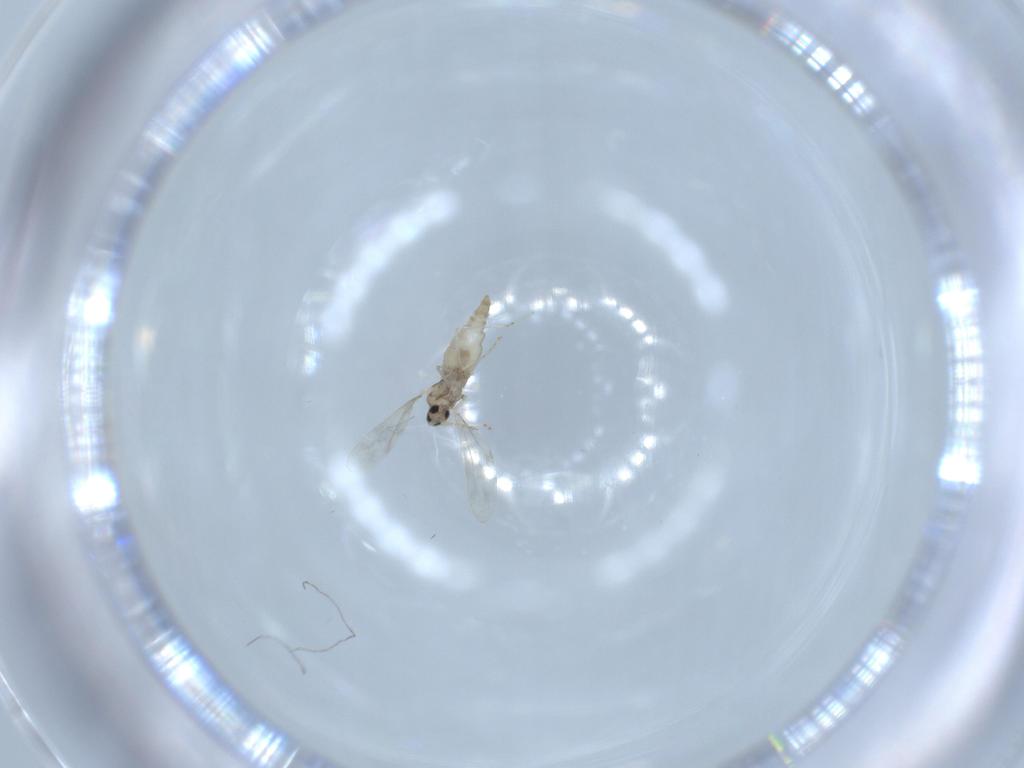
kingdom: Animalia
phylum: Arthropoda
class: Insecta
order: Diptera
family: Cecidomyiidae
